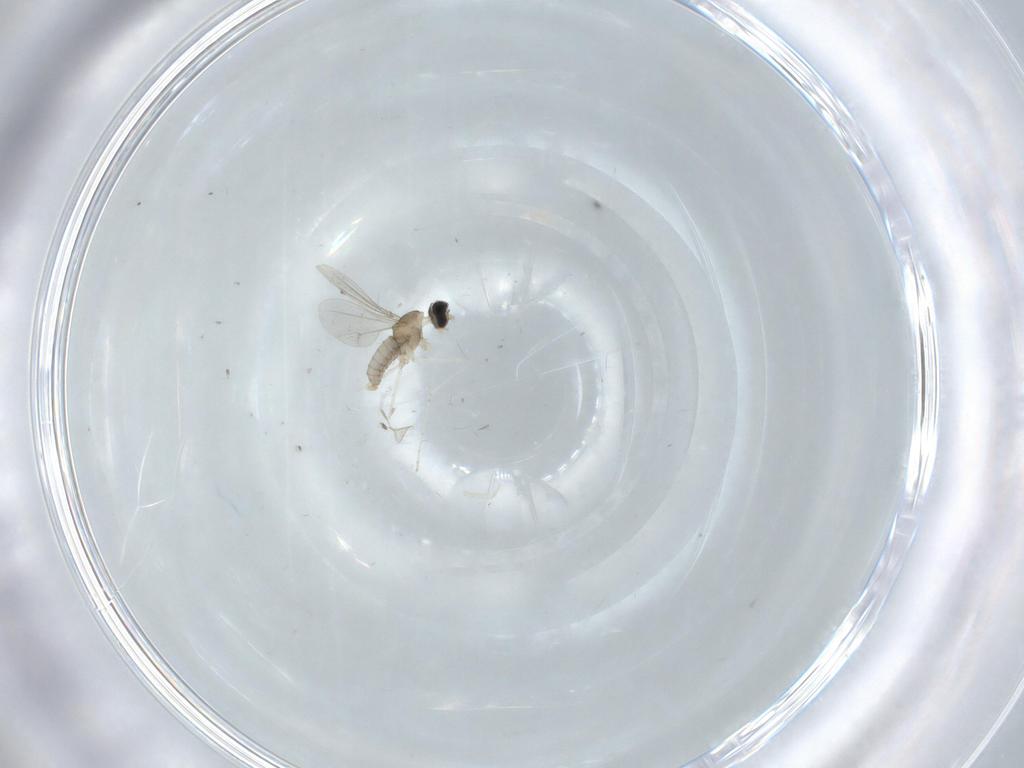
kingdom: Animalia
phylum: Arthropoda
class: Insecta
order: Diptera
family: Cecidomyiidae
